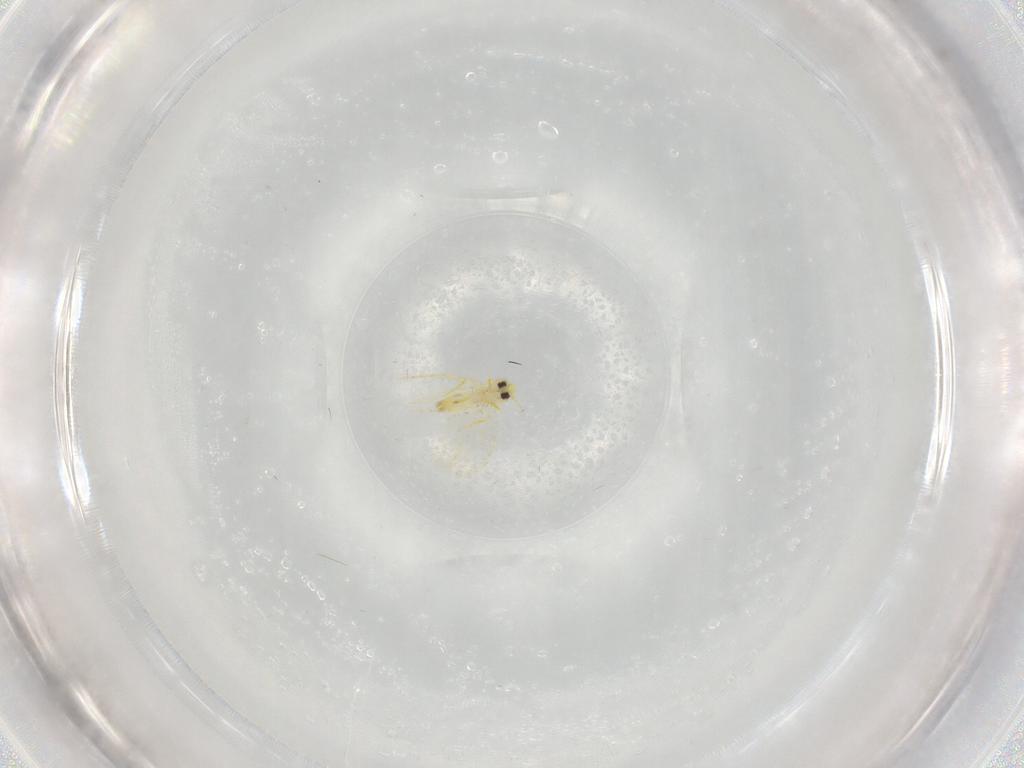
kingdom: Animalia
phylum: Arthropoda
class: Insecta
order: Hemiptera
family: Aleyrodidae
